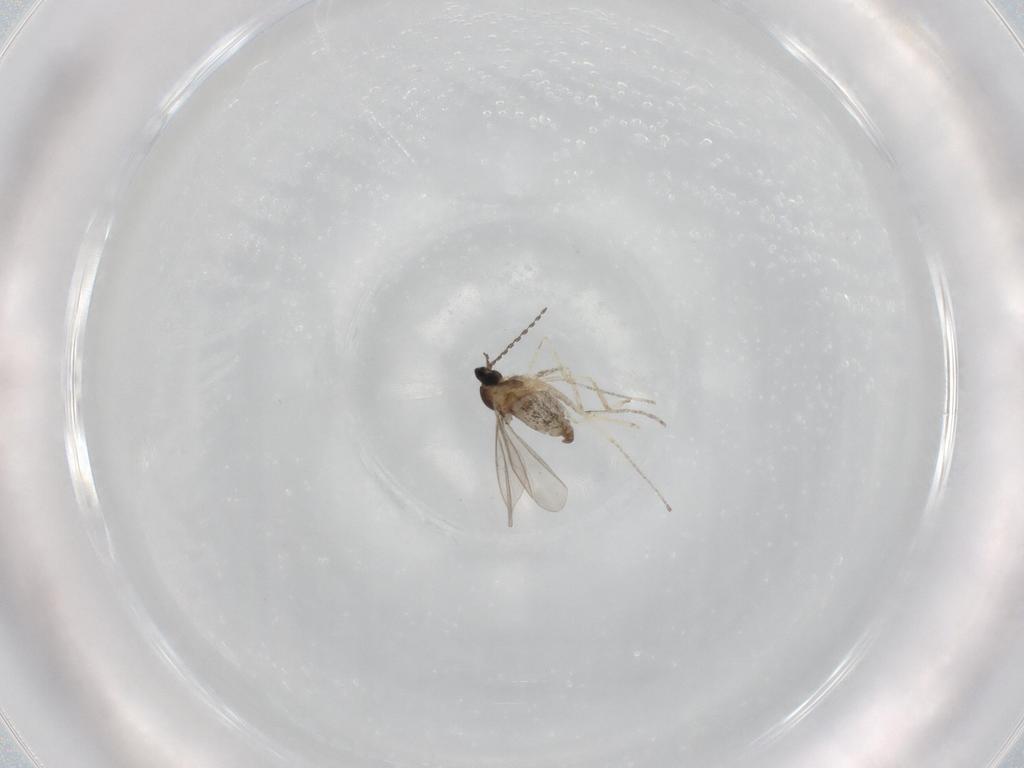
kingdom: Animalia
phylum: Arthropoda
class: Insecta
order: Diptera
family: Cecidomyiidae
